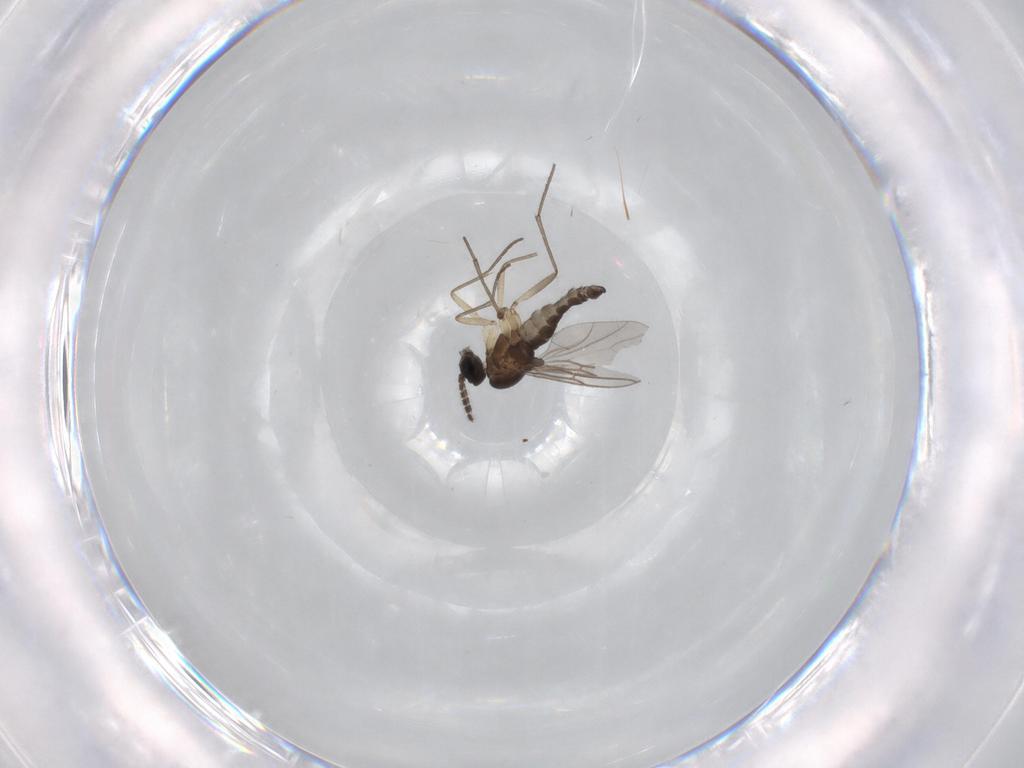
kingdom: Animalia
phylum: Arthropoda
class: Insecta
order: Diptera
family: Sciaridae
